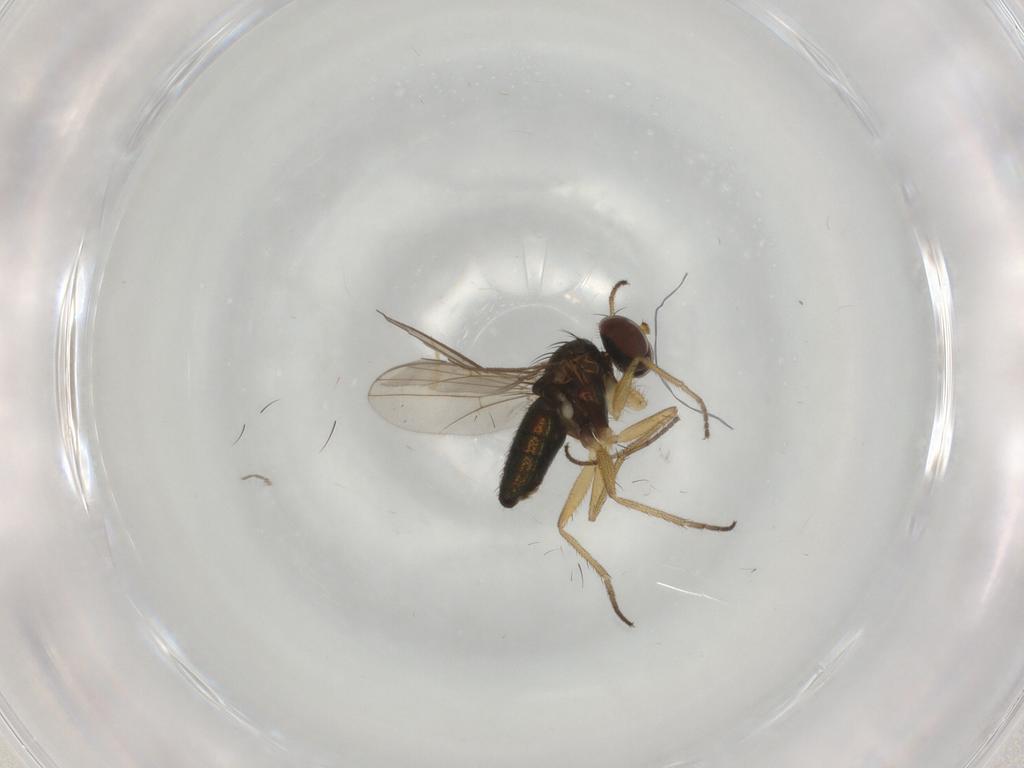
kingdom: Animalia
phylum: Arthropoda
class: Insecta
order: Diptera
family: Dolichopodidae
